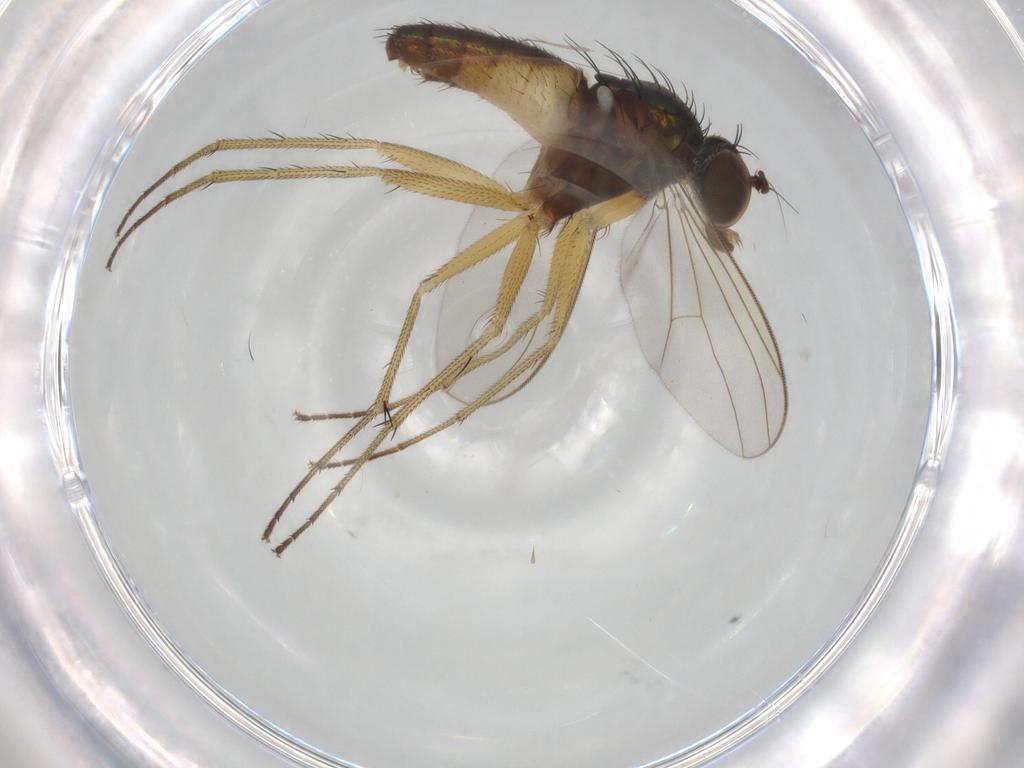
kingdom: Animalia
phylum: Arthropoda
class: Insecta
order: Diptera
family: Ceratopogonidae
